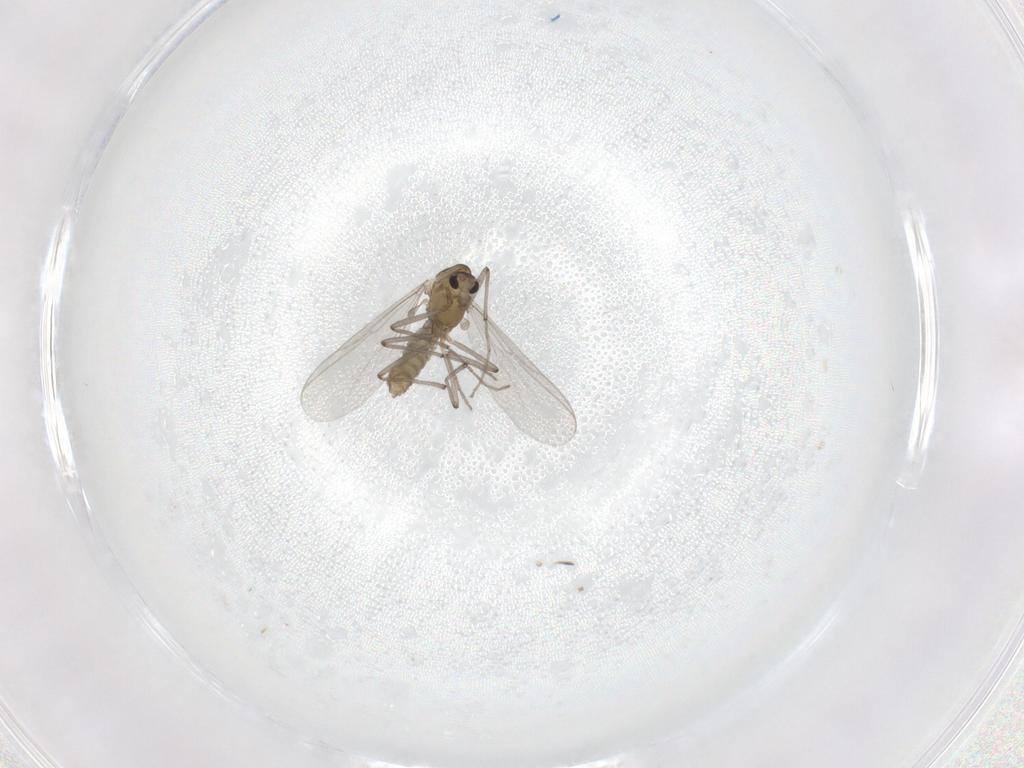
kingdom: Animalia
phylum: Arthropoda
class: Insecta
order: Diptera
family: Chironomidae
